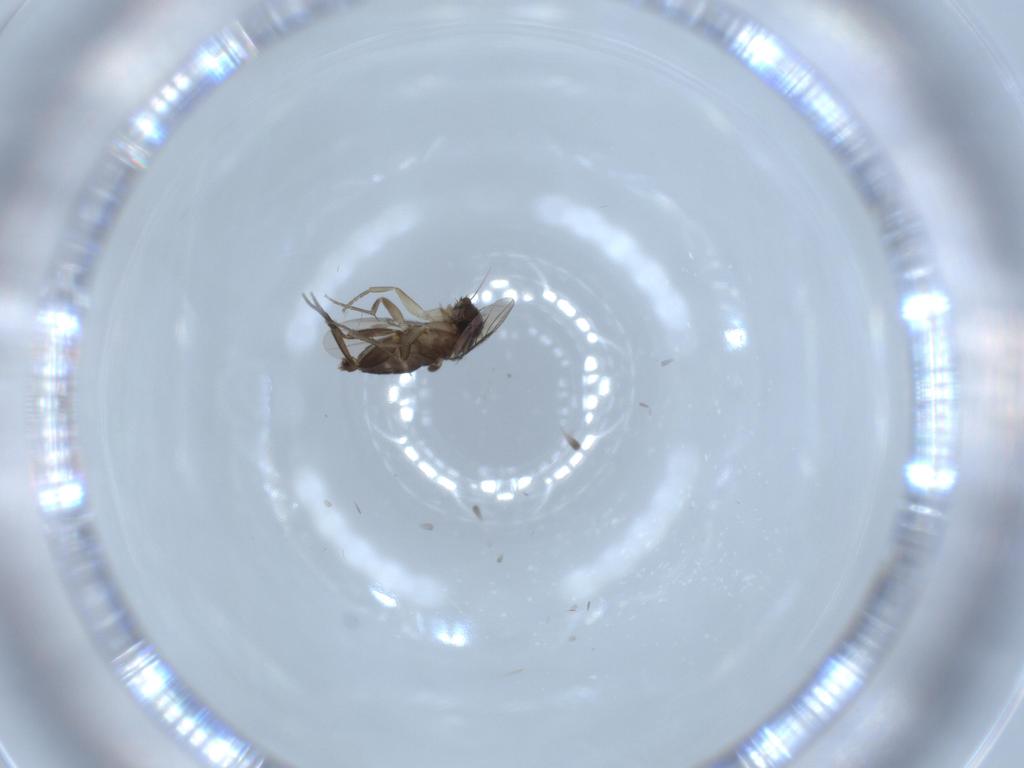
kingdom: Animalia
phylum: Arthropoda
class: Insecta
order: Diptera
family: Phoridae
